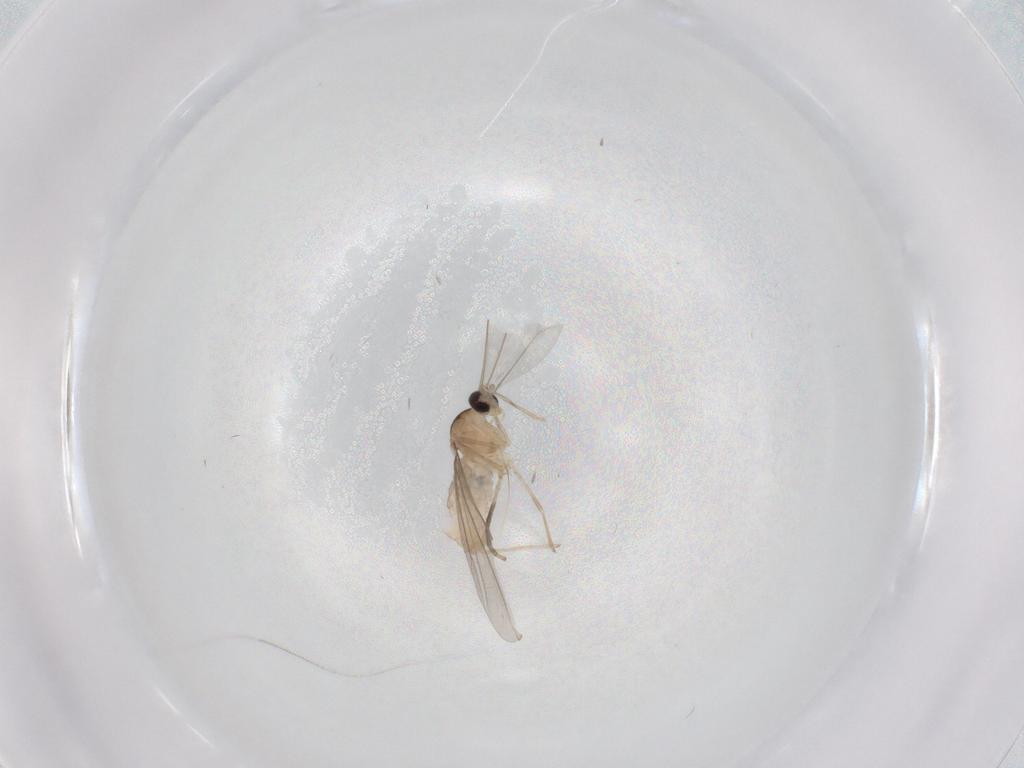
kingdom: Animalia
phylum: Arthropoda
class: Insecta
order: Diptera
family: Cecidomyiidae
